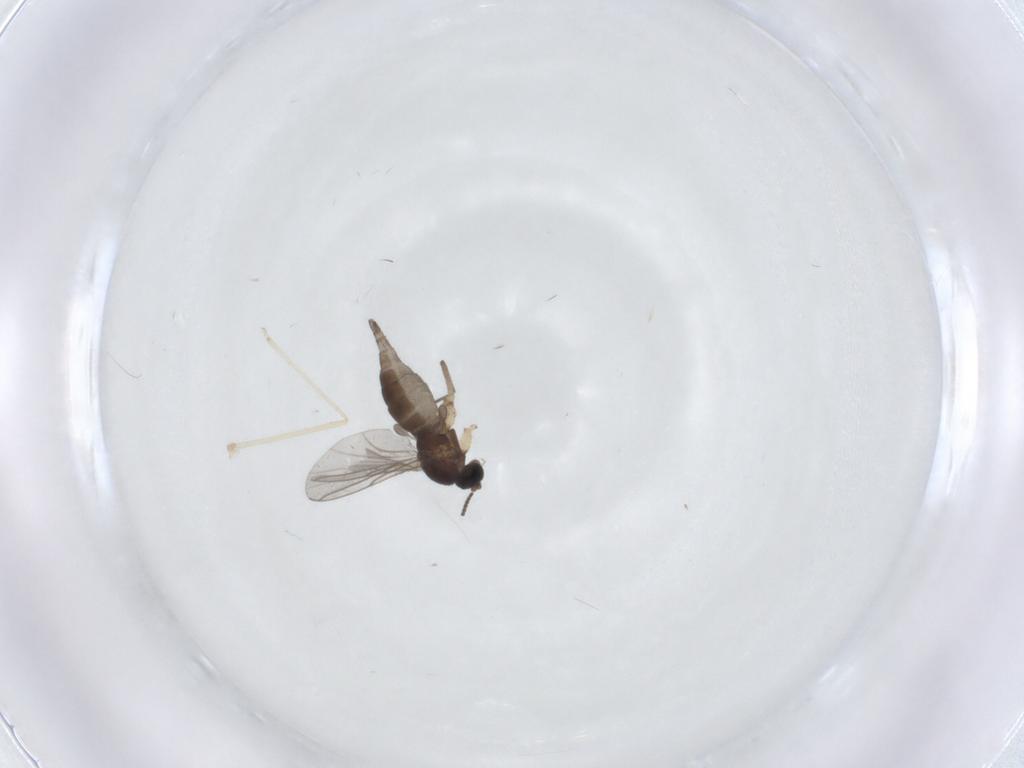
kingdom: Animalia
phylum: Arthropoda
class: Insecta
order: Diptera
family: Sciaridae
